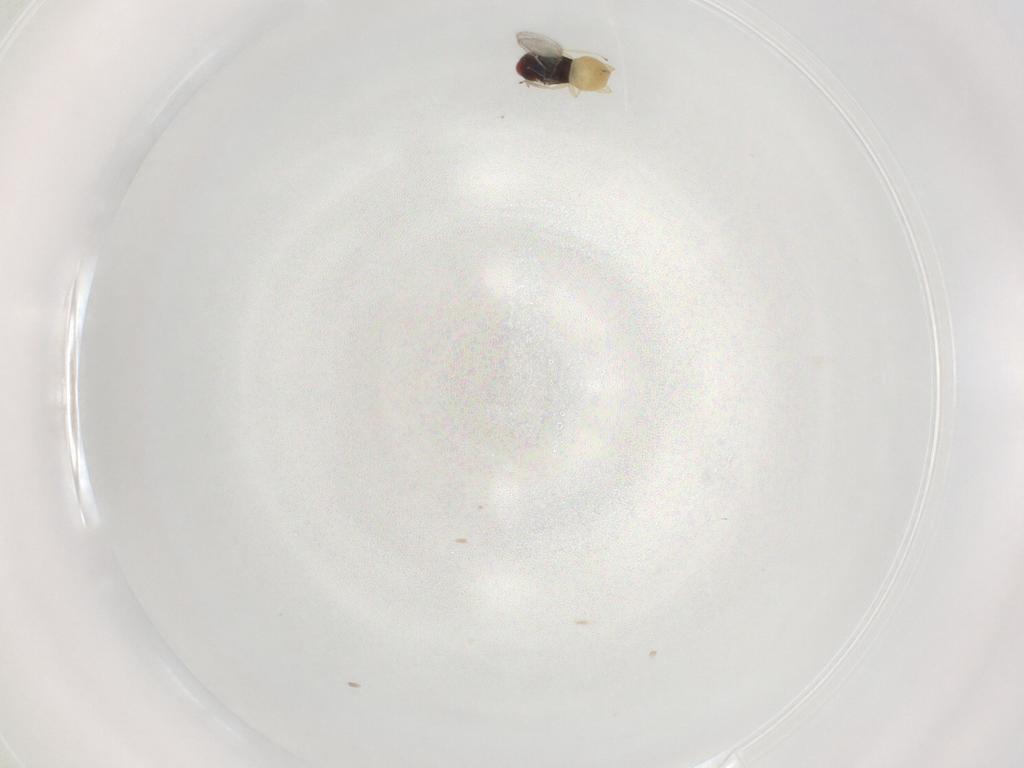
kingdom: Animalia
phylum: Arthropoda
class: Insecta
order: Hymenoptera
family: Eulophidae
